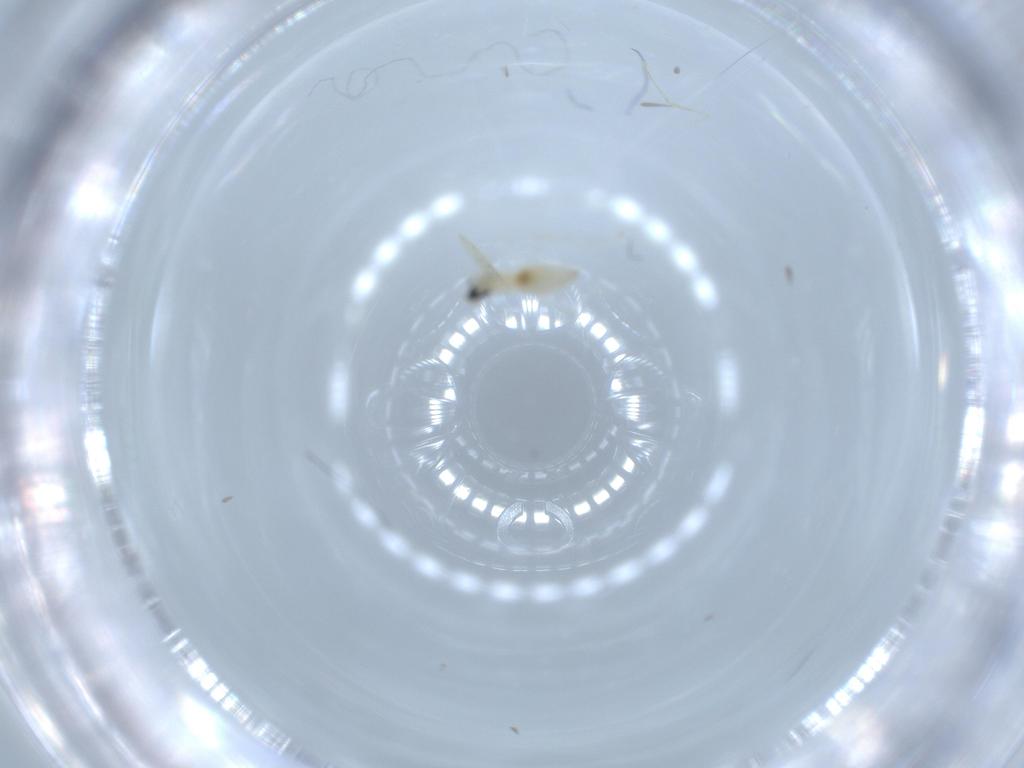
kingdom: Animalia
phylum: Arthropoda
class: Insecta
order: Diptera
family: Cecidomyiidae
